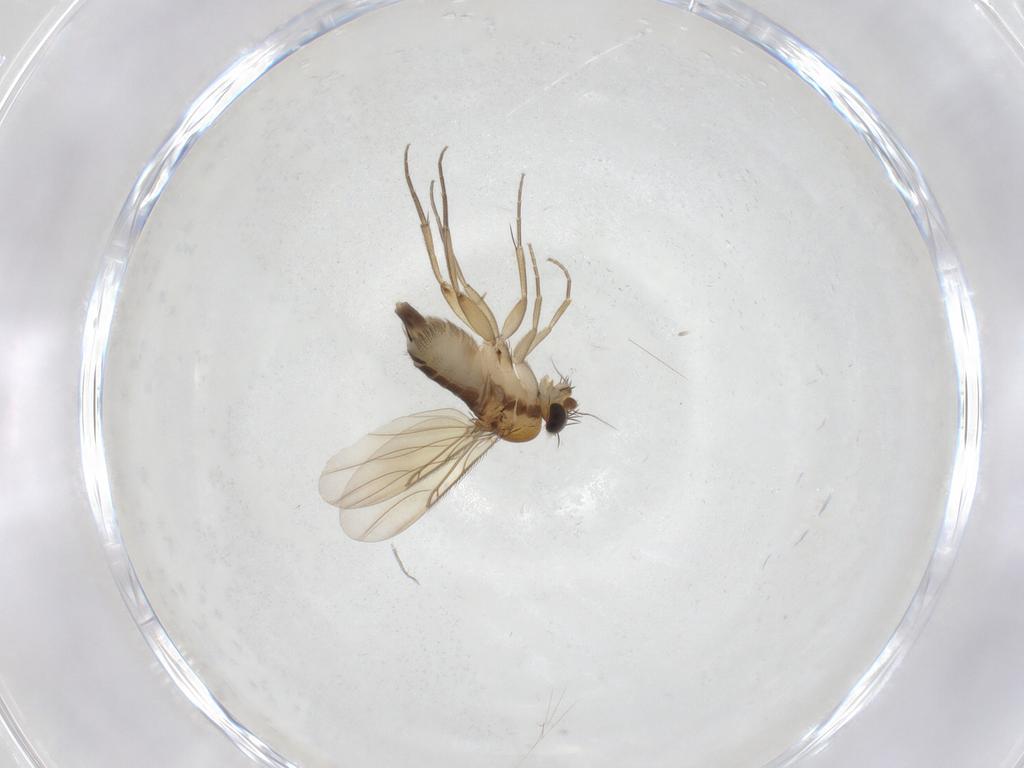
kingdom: Animalia
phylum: Arthropoda
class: Insecta
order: Diptera
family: Phoridae
